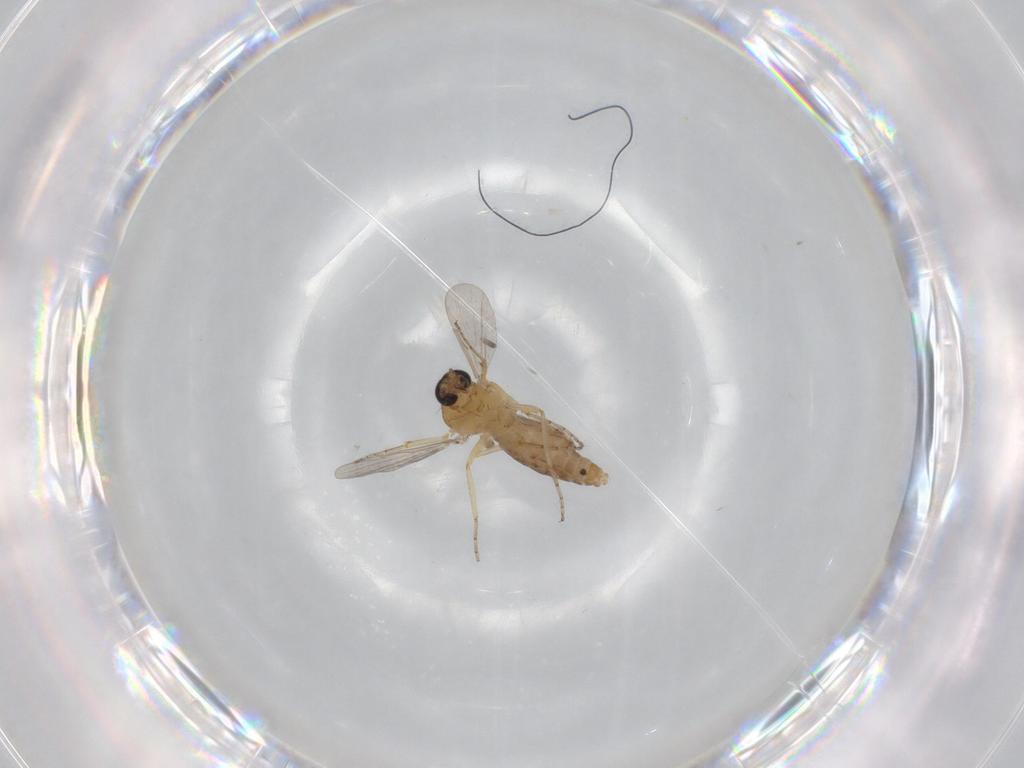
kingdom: Animalia
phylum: Arthropoda
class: Insecta
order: Diptera
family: Ceratopogonidae
